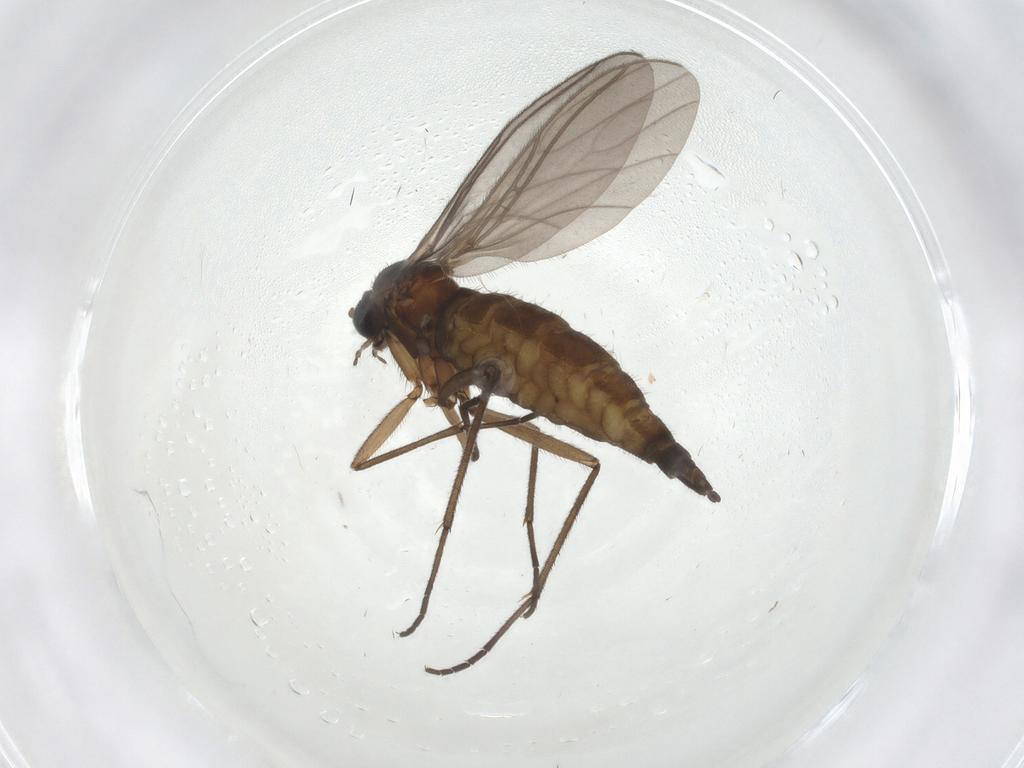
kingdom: Animalia
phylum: Arthropoda
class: Insecta
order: Diptera
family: Sciaridae
